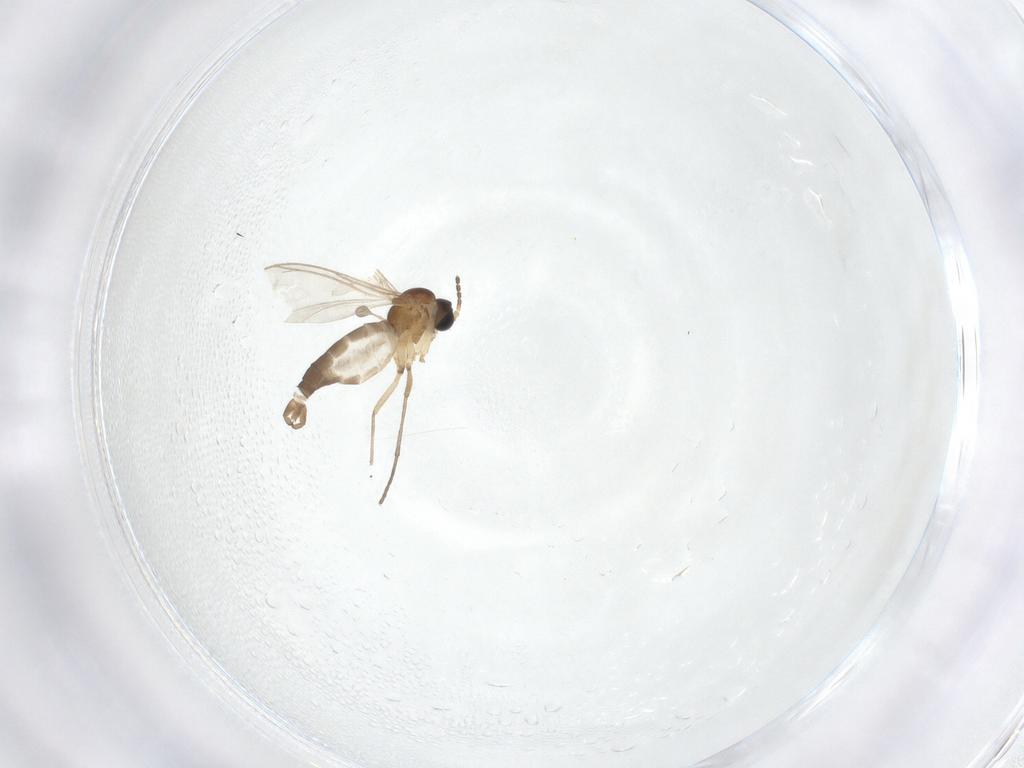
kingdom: Animalia
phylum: Arthropoda
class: Insecta
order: Diptera
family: Sciaridae
